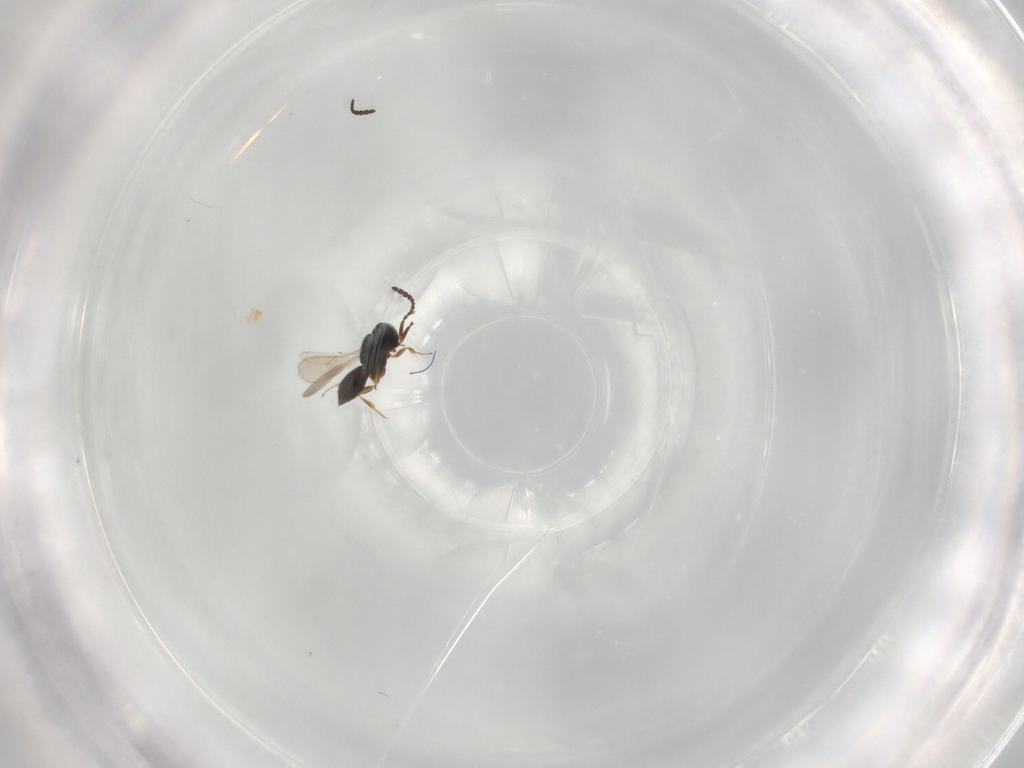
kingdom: Animalia
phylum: Arthropoda
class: Insecta
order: Hymenoptera
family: Scelionidae
